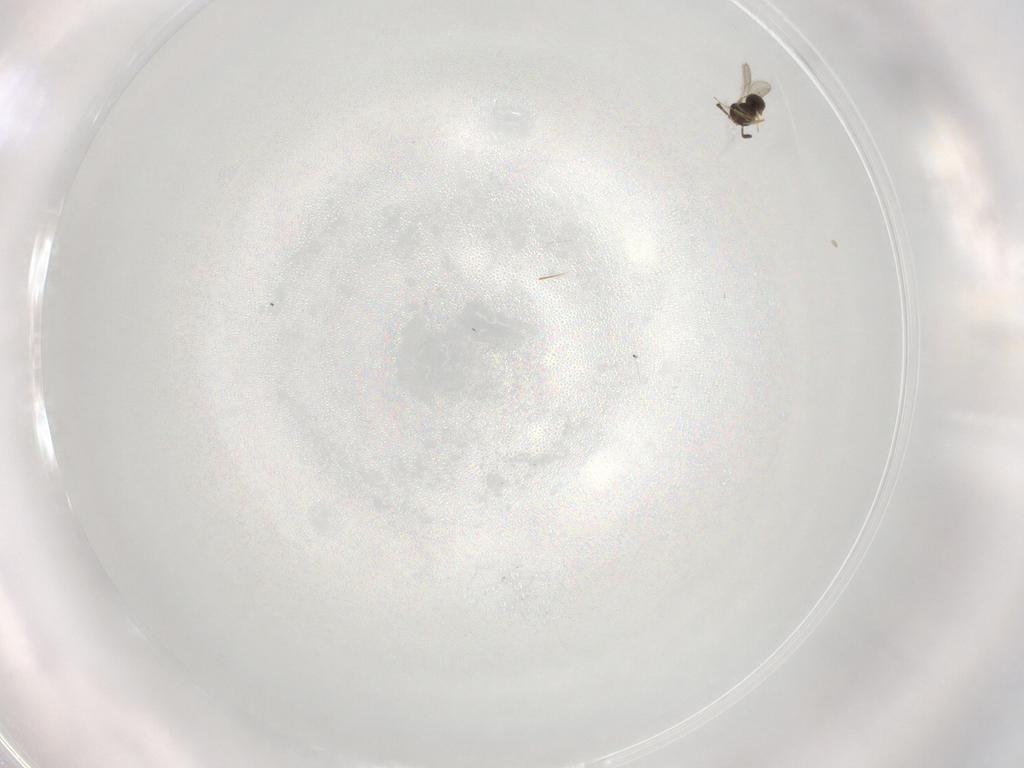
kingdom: Animalia
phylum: Arthropoda
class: Insecta
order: Hymenoptera
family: Scelionidae
